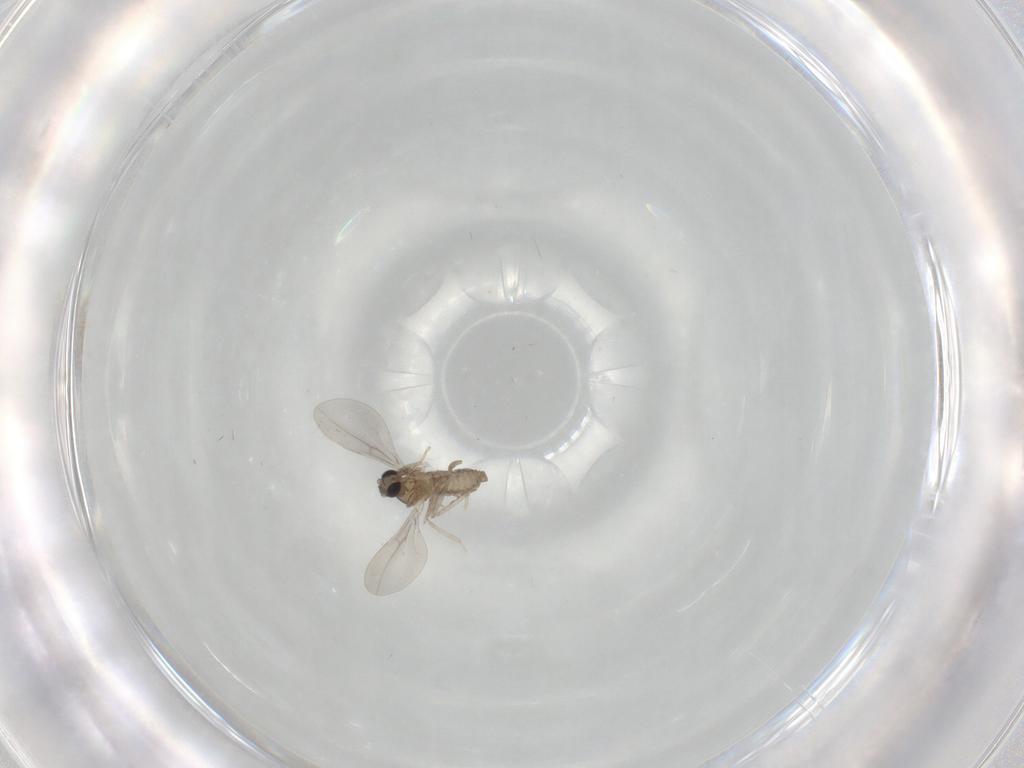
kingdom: Animalia
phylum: Arthropoda
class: Insecta
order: Diptera
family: Cecidomyiidae
